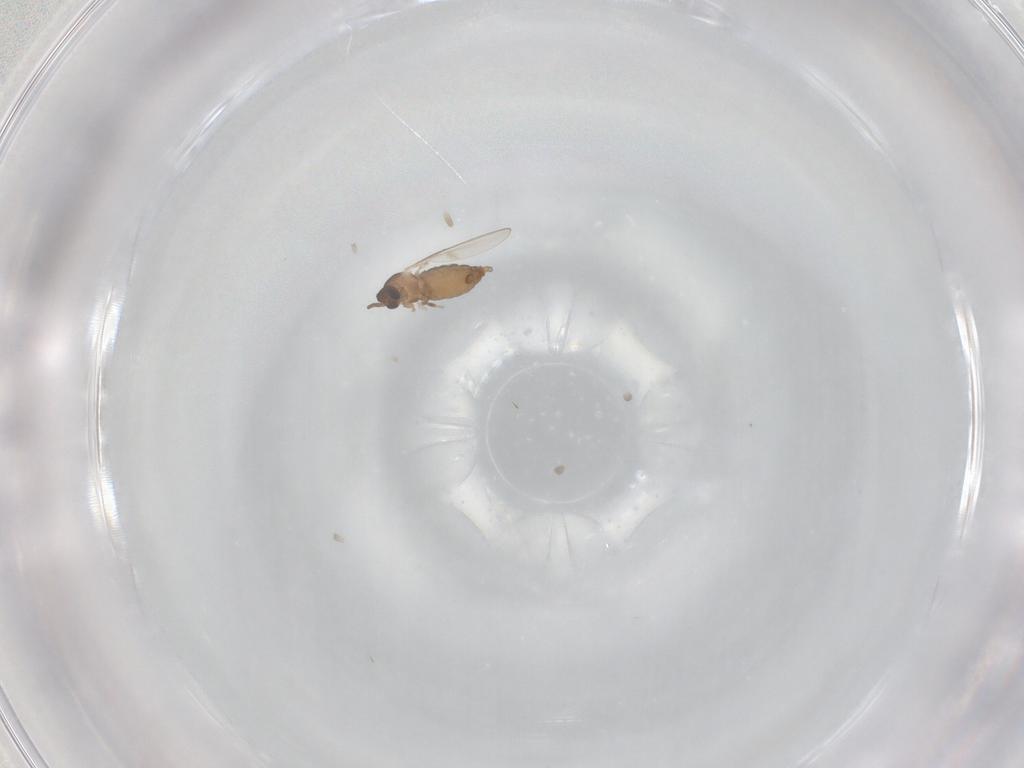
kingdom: Animalia
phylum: Arthropoda
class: Insecta
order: Diptera
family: Cecidomyiidae
